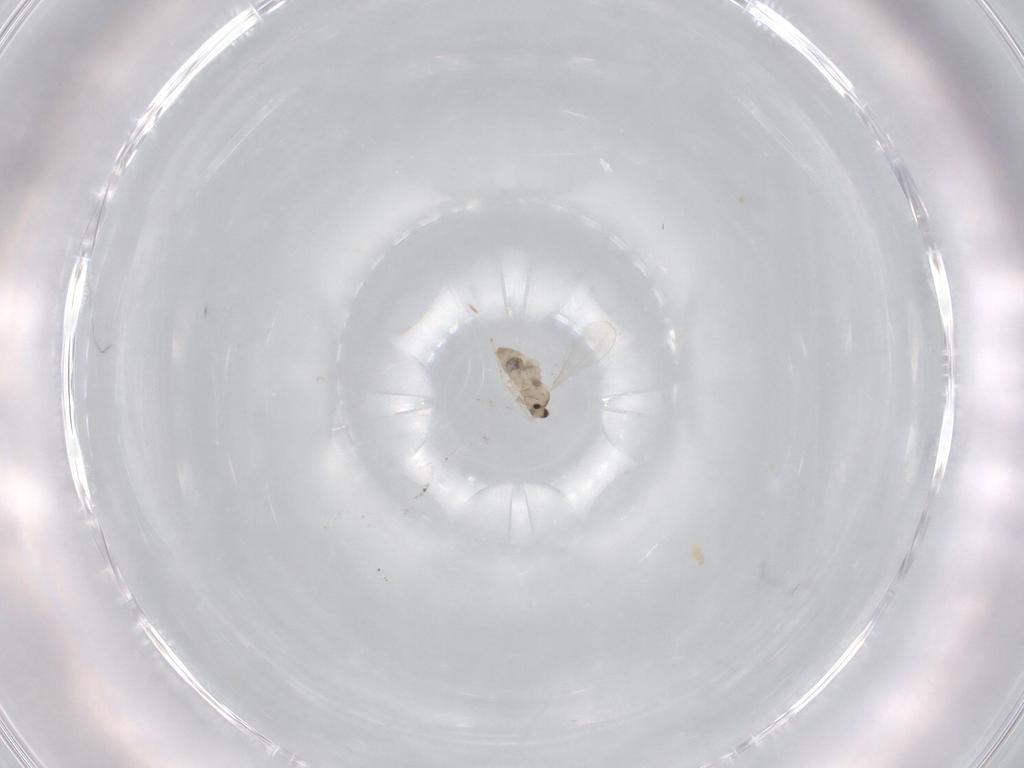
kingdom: Animalia
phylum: Arthropoda
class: Insecta
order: Diptera
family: Cecidomyiidae
